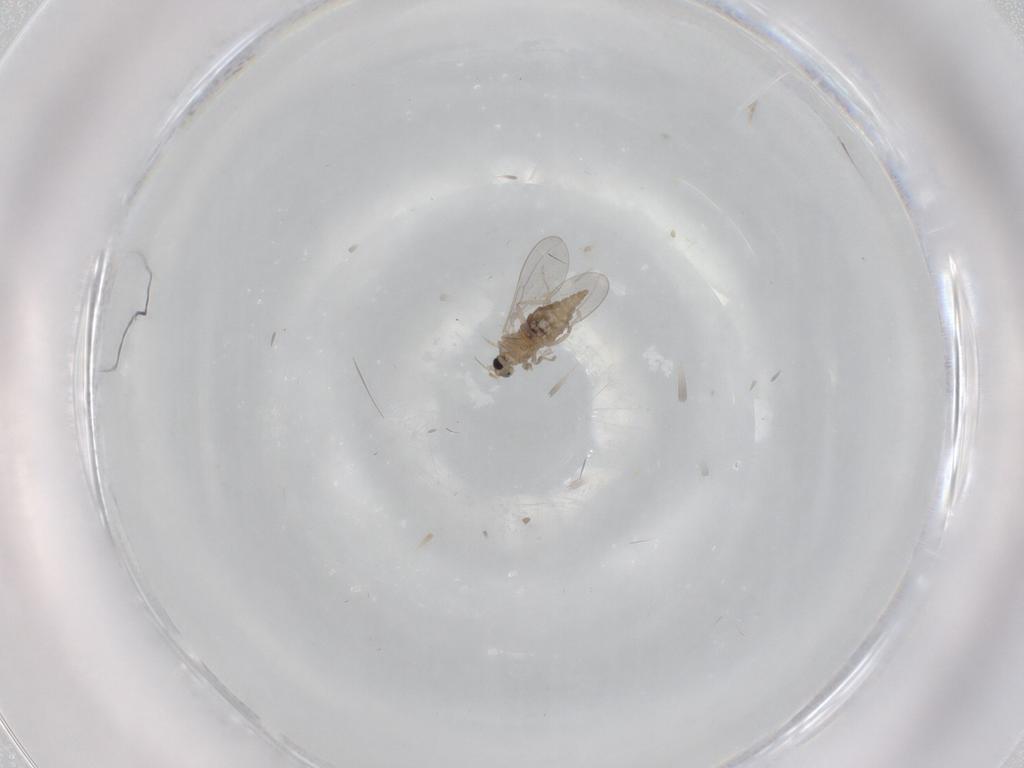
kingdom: Animalia
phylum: Arthropoda
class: Insecta
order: Diptera
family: Cecidomyiidae
